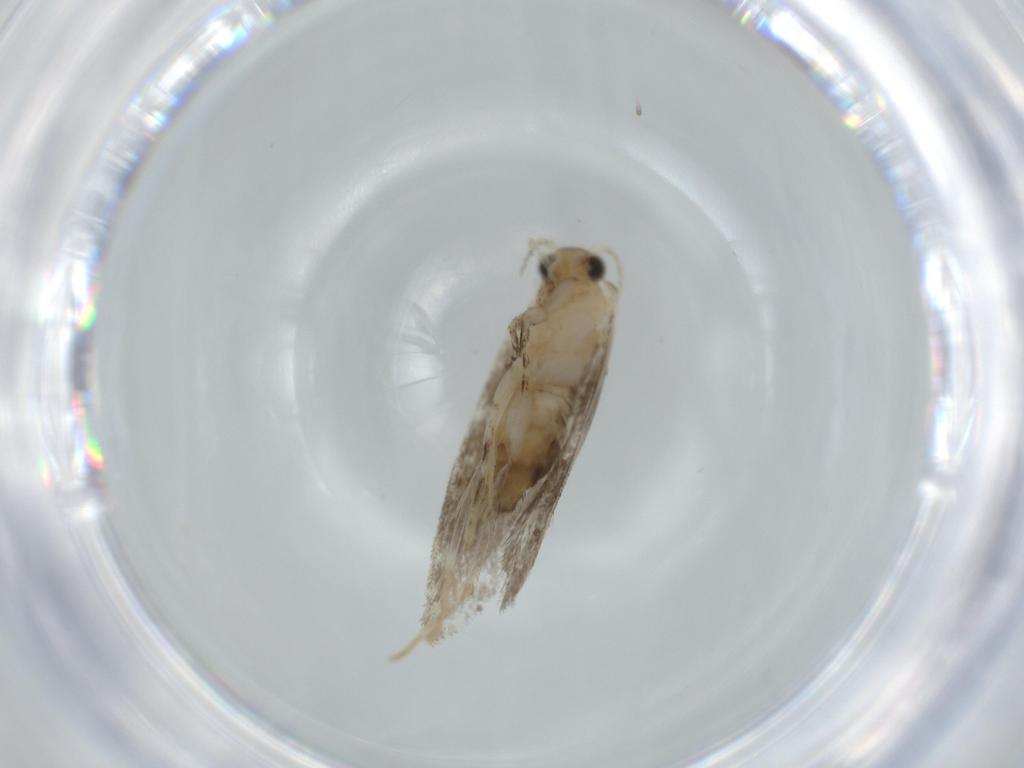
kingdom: Animalia
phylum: Arthropoda
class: Insecta
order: Lepidoptera
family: Tineidae
